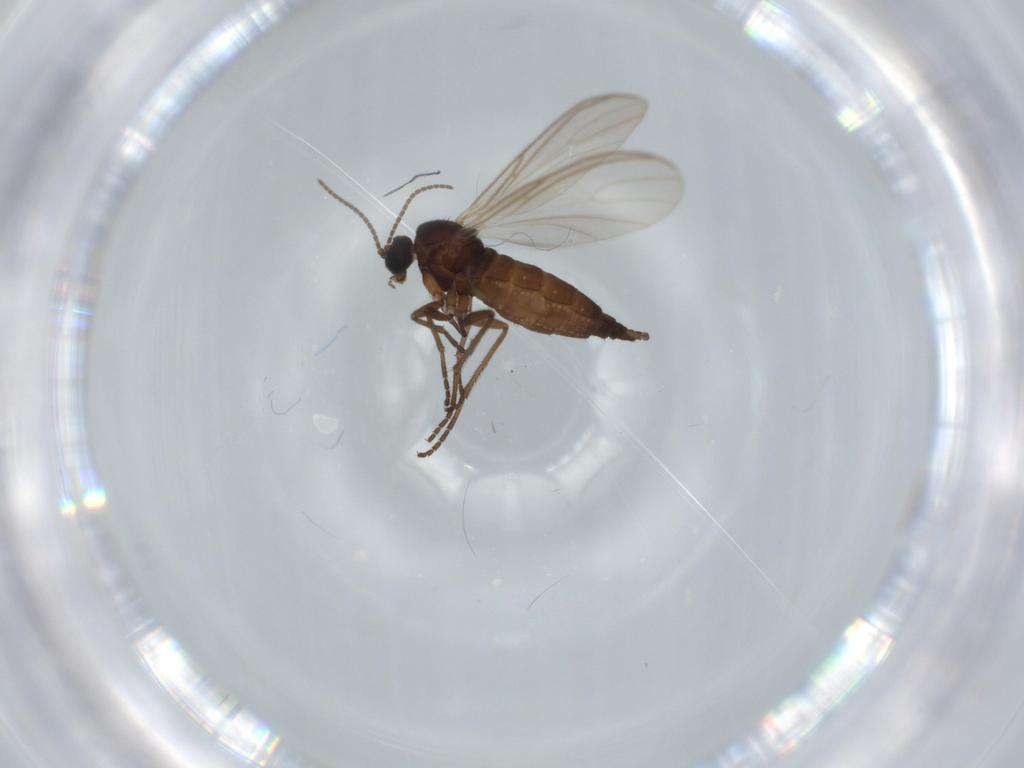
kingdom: Animalia
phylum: Arthropoda
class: Insecta
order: Diptera
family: Sciaridae
